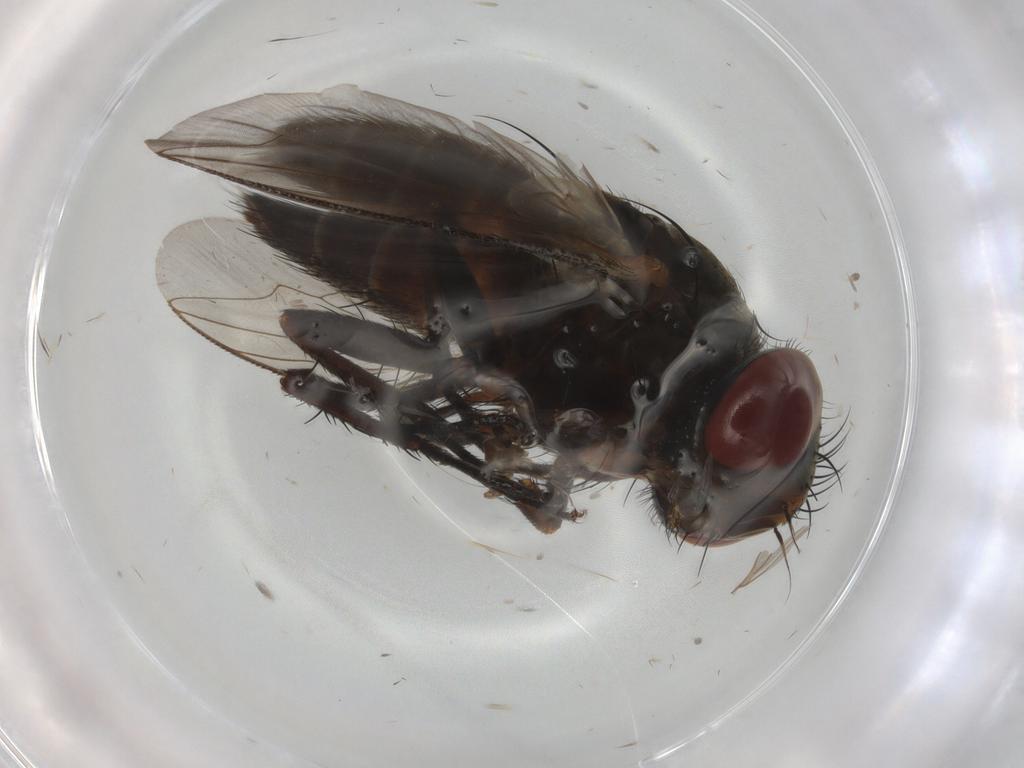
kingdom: Animalia
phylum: Arthropoda
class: Insecta
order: Diptera
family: Cecidomyiidae
